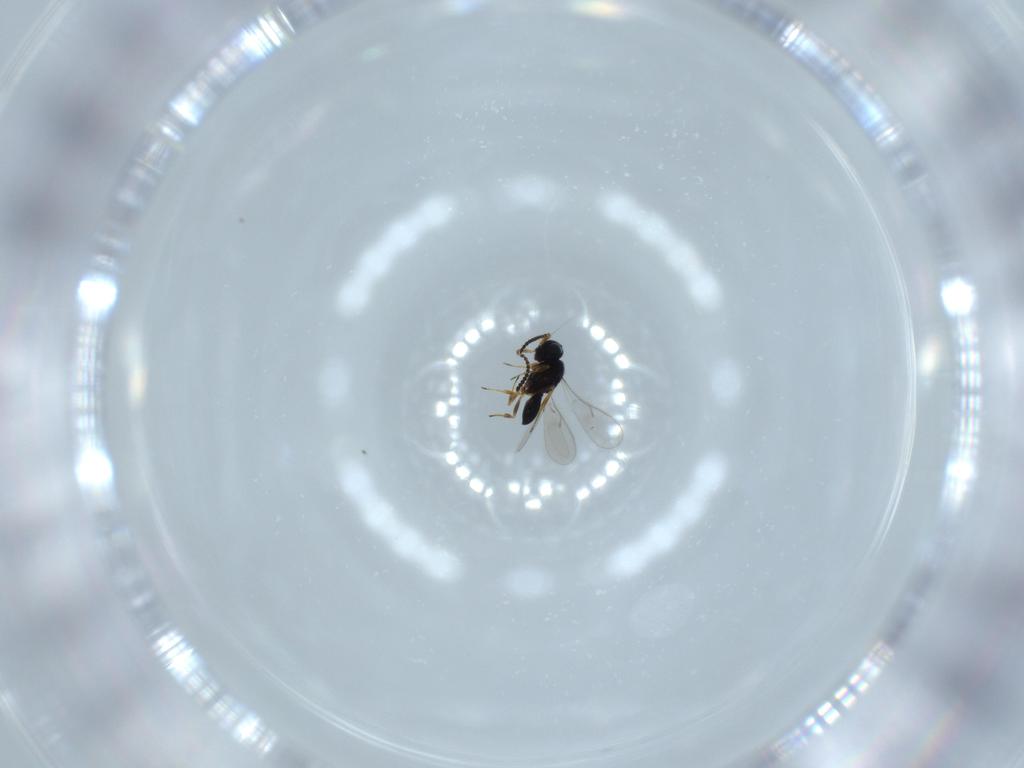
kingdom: Animalia
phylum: Arthropoda
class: Insecta
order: Hymenoptera
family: Scelionidae
